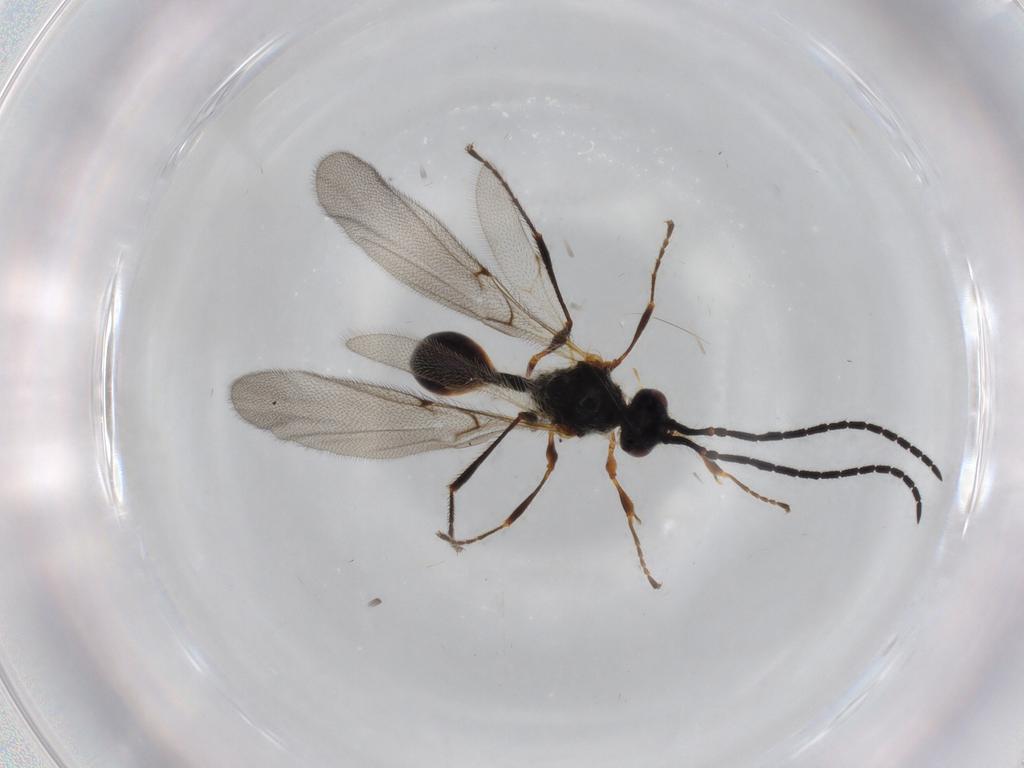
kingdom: Animalia
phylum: Arthropoda
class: Insecta
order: Hymenoptera
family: Diapriidae
